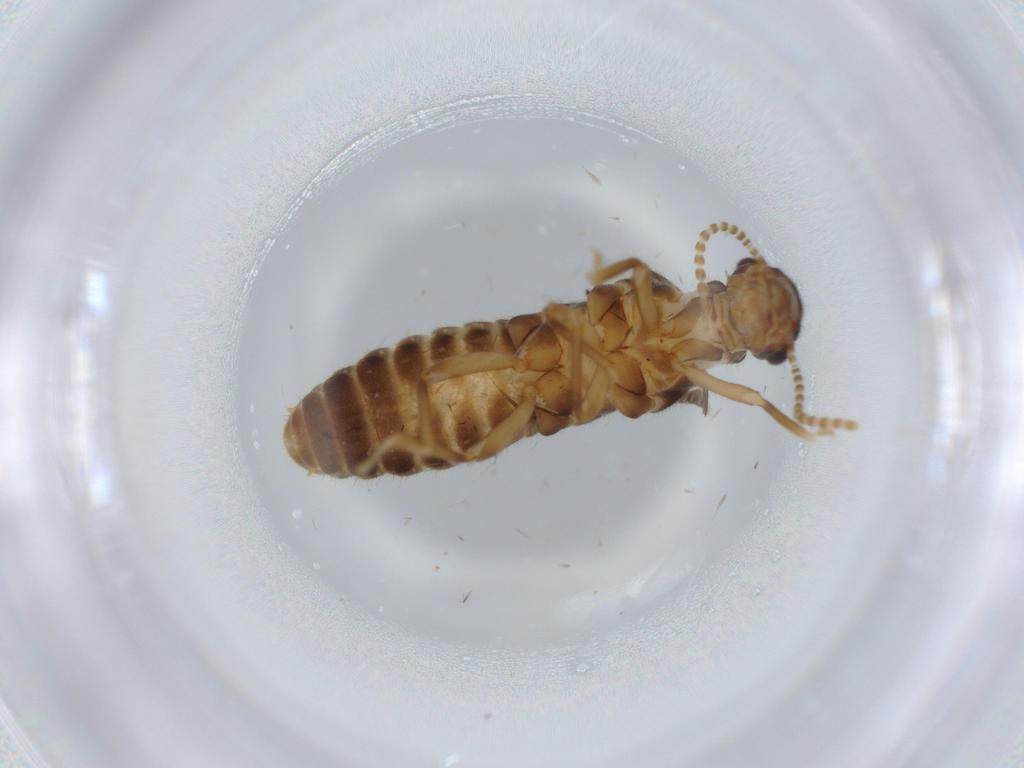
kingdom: Animalia
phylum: Arthropoda
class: Insecta
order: Blattodea
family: Termitidae
